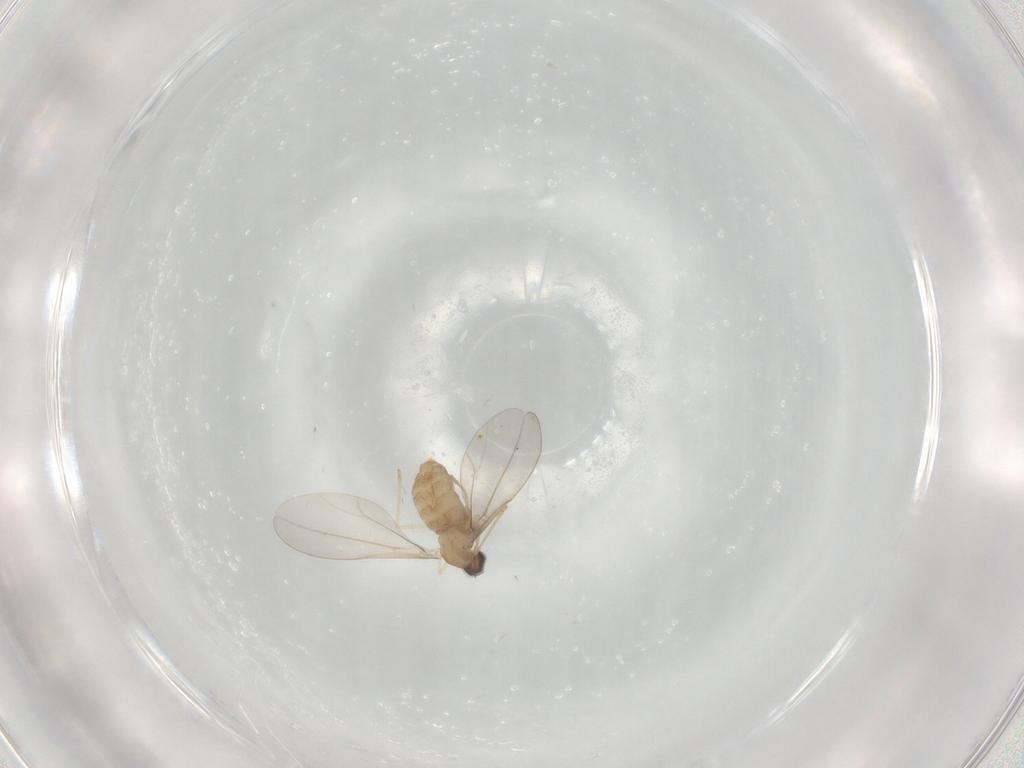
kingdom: Animalia
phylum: Arthropoda
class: Insecta
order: Diptera
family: Cecidomyiidae
